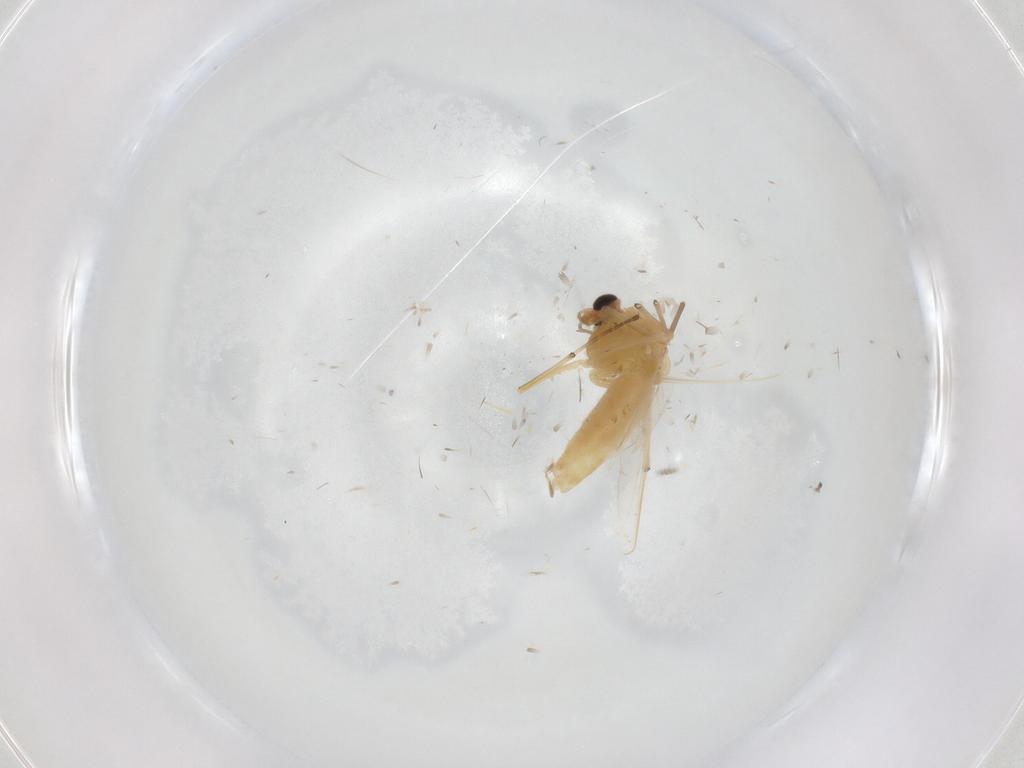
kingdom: Animalia
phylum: Arthropoda
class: Insecta
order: Diptera
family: Chironomidae
